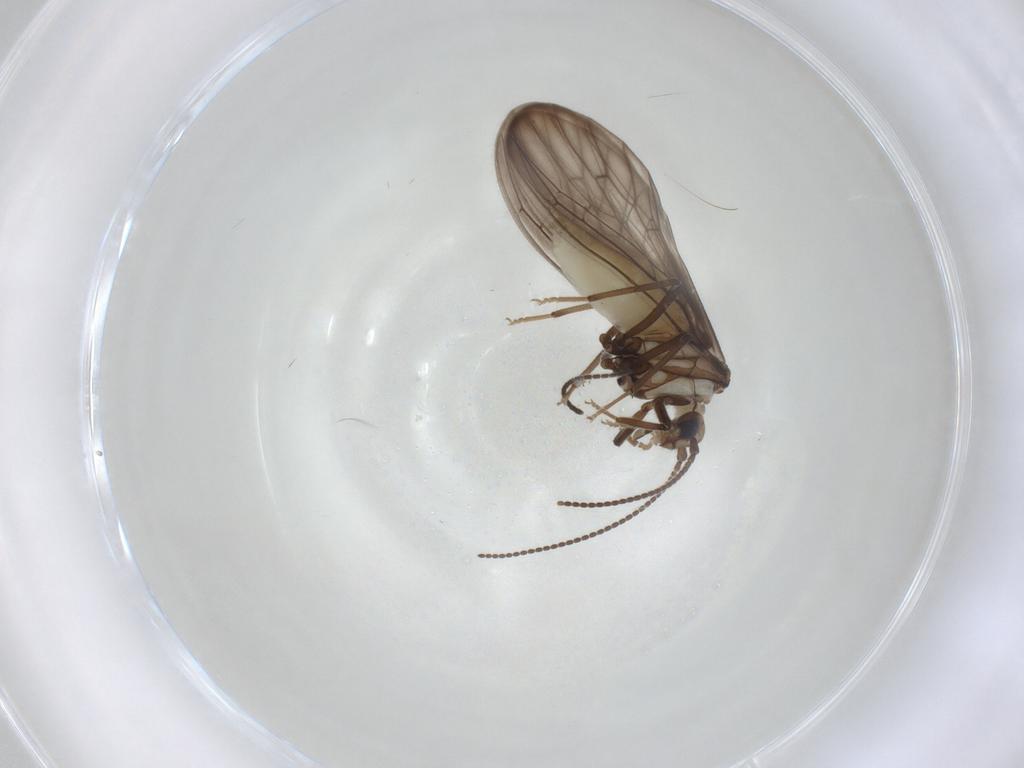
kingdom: Animalia
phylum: Arthropoda
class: Insecta
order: Neuroptera
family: Coniopterygidae
